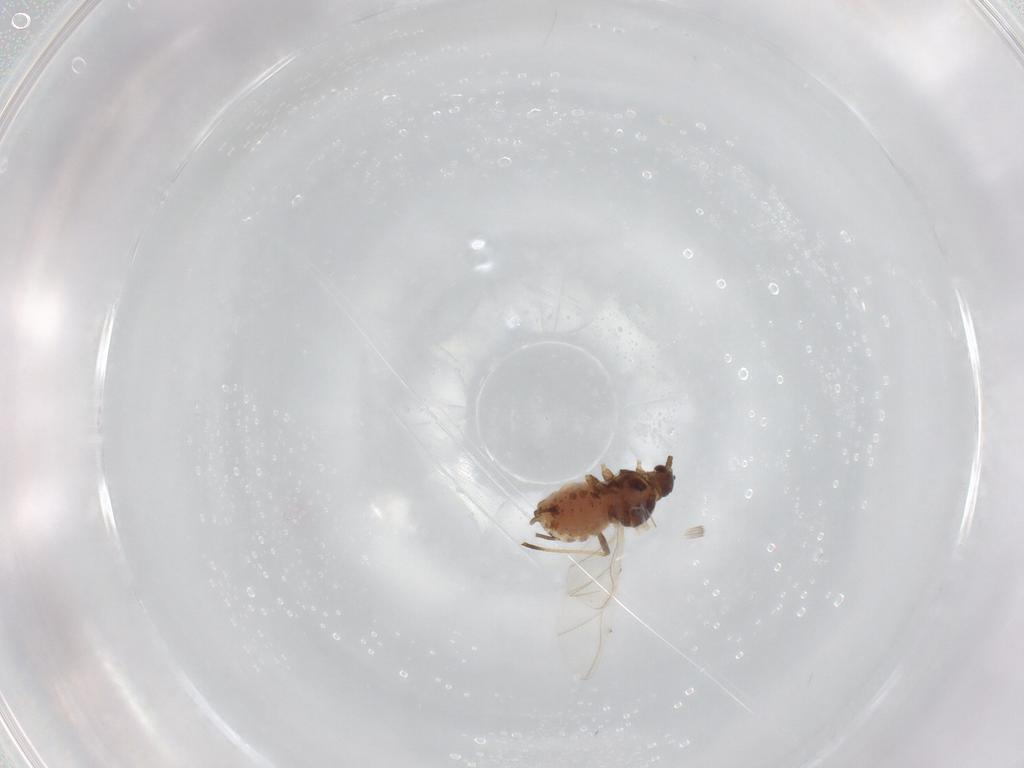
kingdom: Animalia
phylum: Arthropoda
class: Insecta
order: Hemiptera
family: Aphididae
